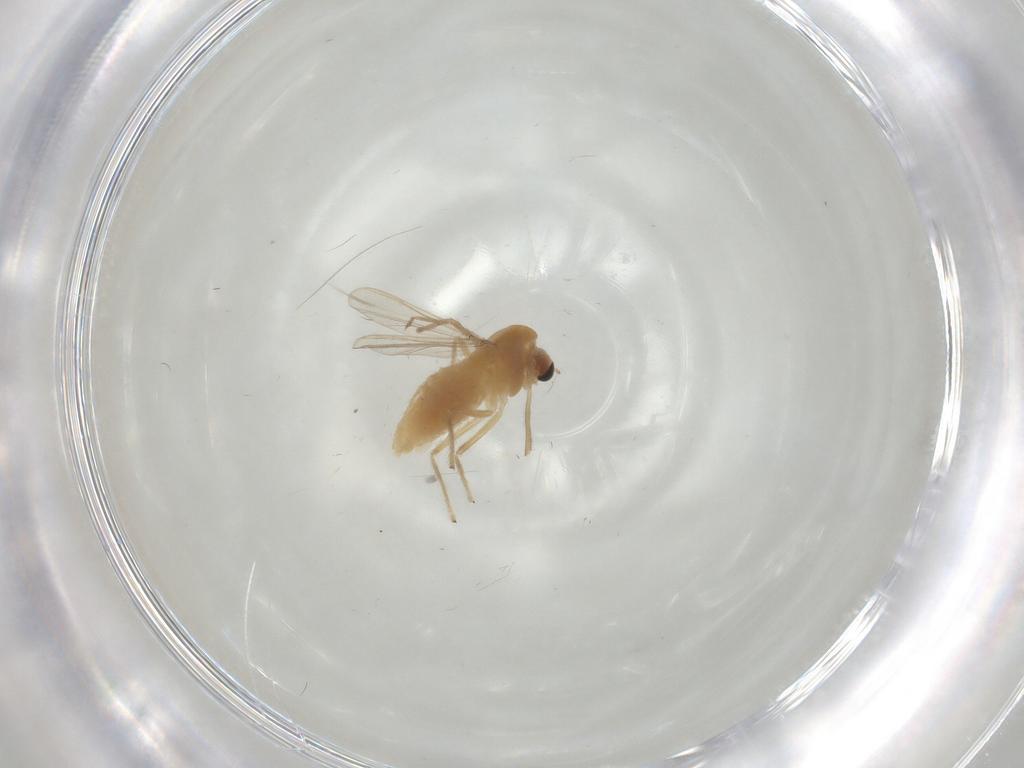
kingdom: Animalia
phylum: Arthropoda
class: Insecta
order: Diptera
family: Chironomidae
